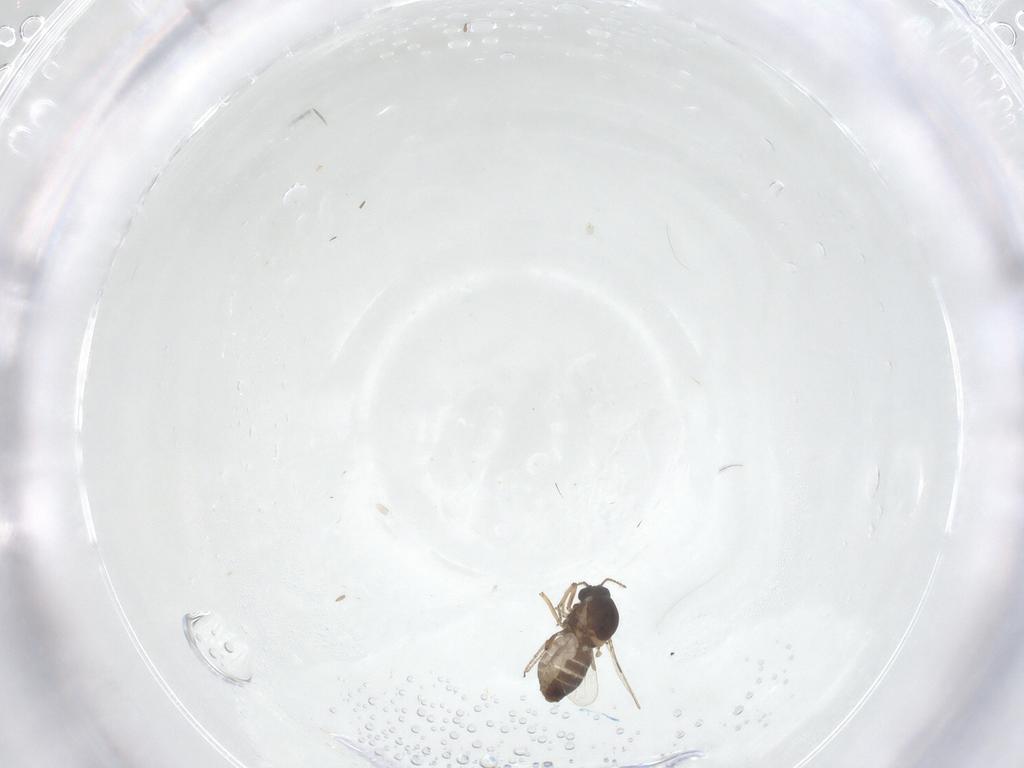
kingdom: Animalia
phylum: Arthropoda
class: Insecta
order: Diptera
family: Ceratopogonidae
